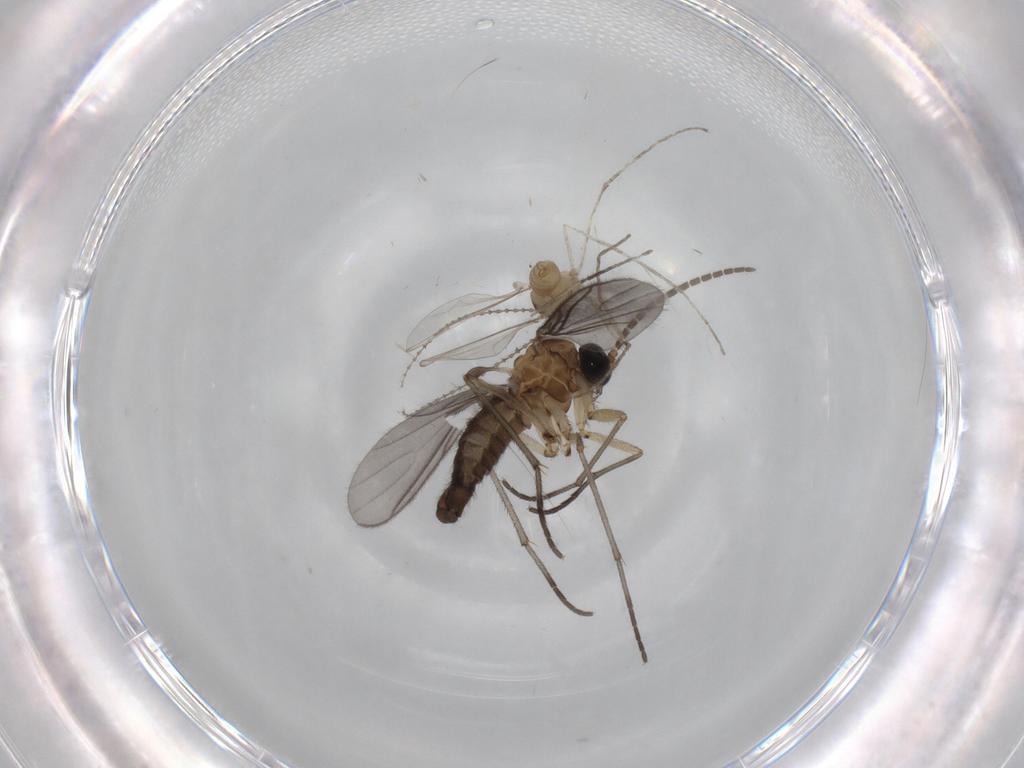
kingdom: Animalia
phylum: Arthropoda
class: Insecta
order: Diptera
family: Sciaridae
